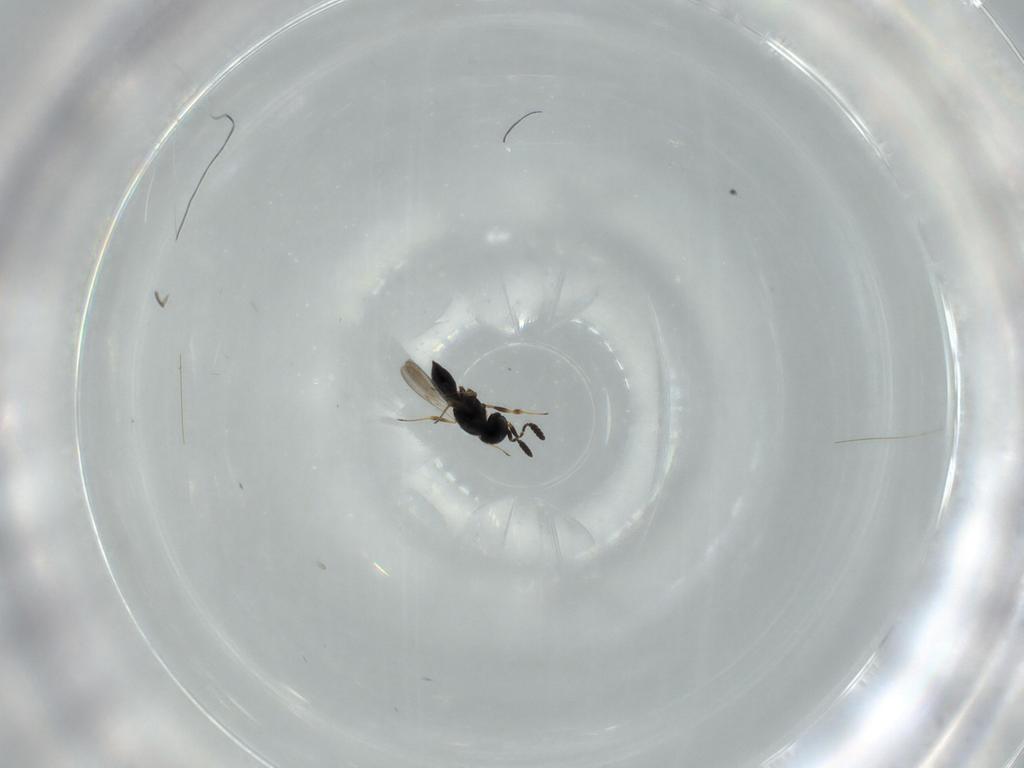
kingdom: Animalia
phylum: Arthropoda
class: Insecta
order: Hymenoptera
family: Scelionidae
